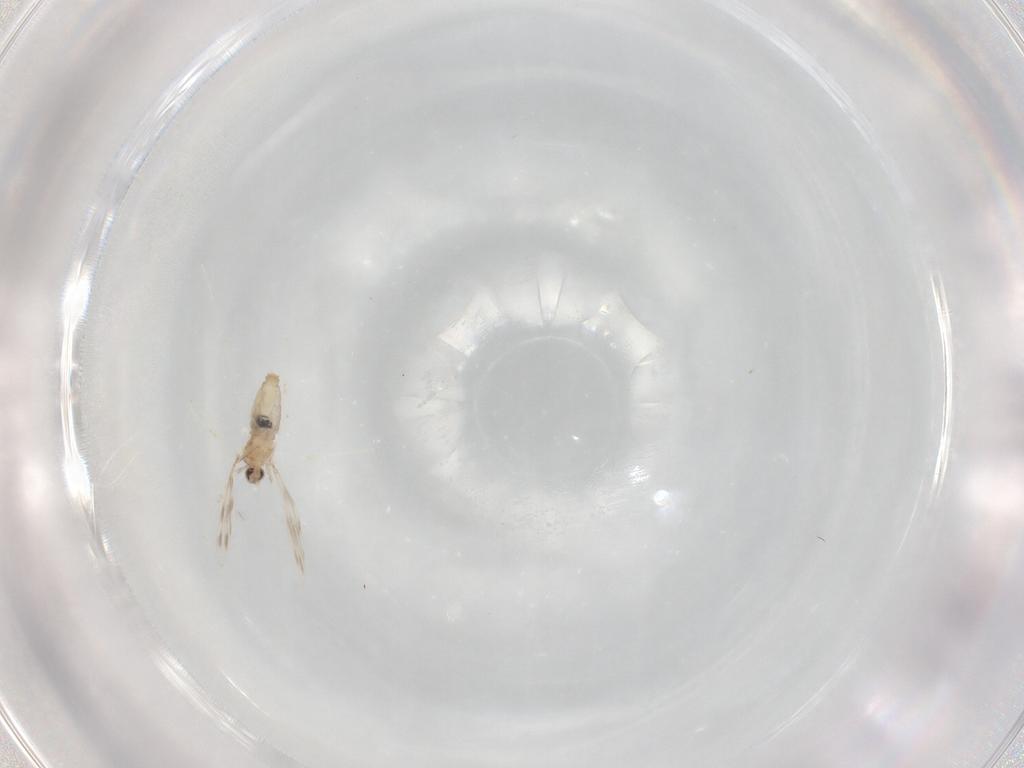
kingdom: Animalia
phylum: Arthropoda
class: Insecta
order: Diptera
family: Cecidomyiidae
